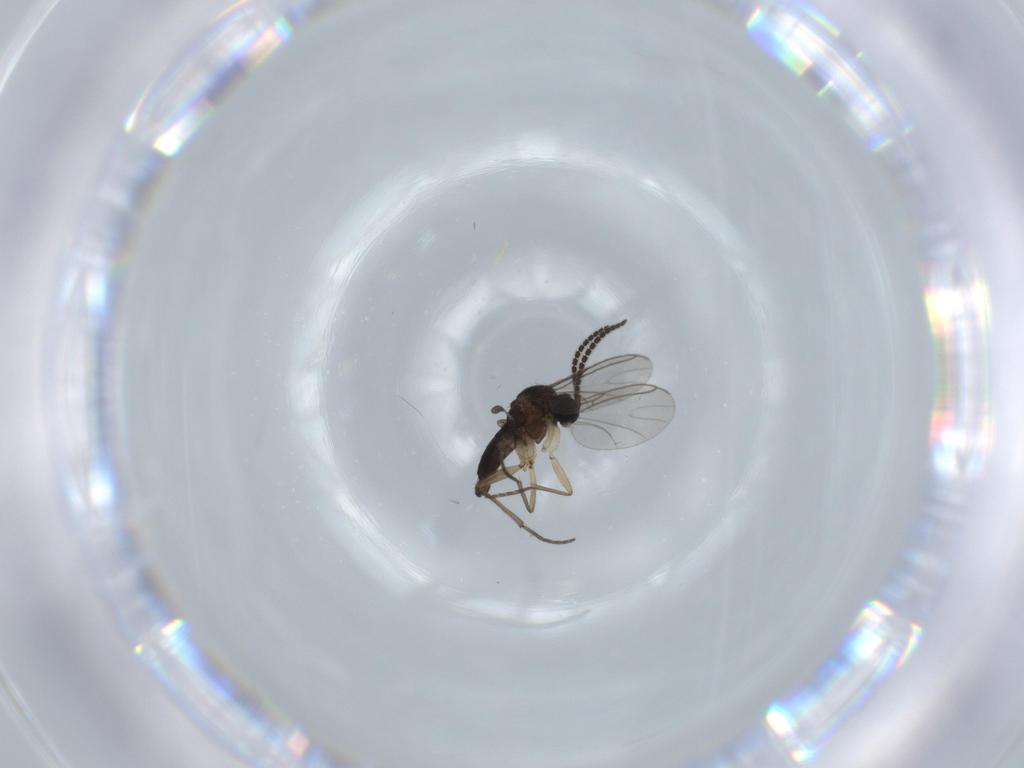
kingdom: Animalia
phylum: Arthropoda
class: Insecta
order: Diptera
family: Sciaridae
